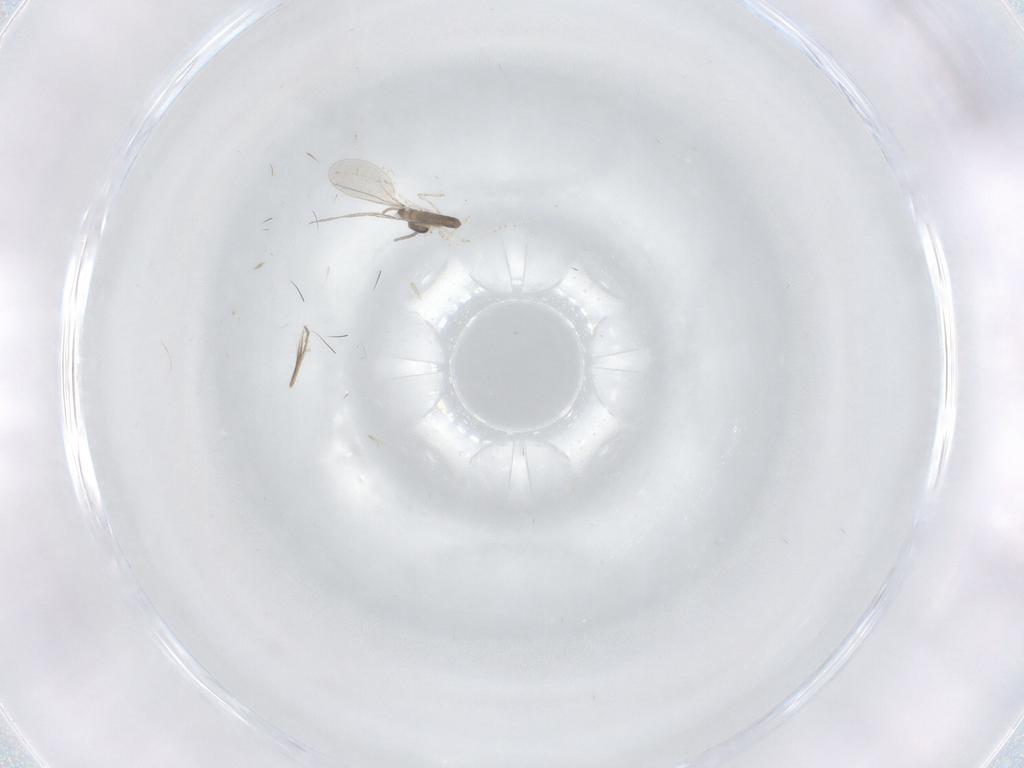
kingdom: Animalia
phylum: Arthropoda
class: Insecta
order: Diptera
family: Ceratopogonidae
